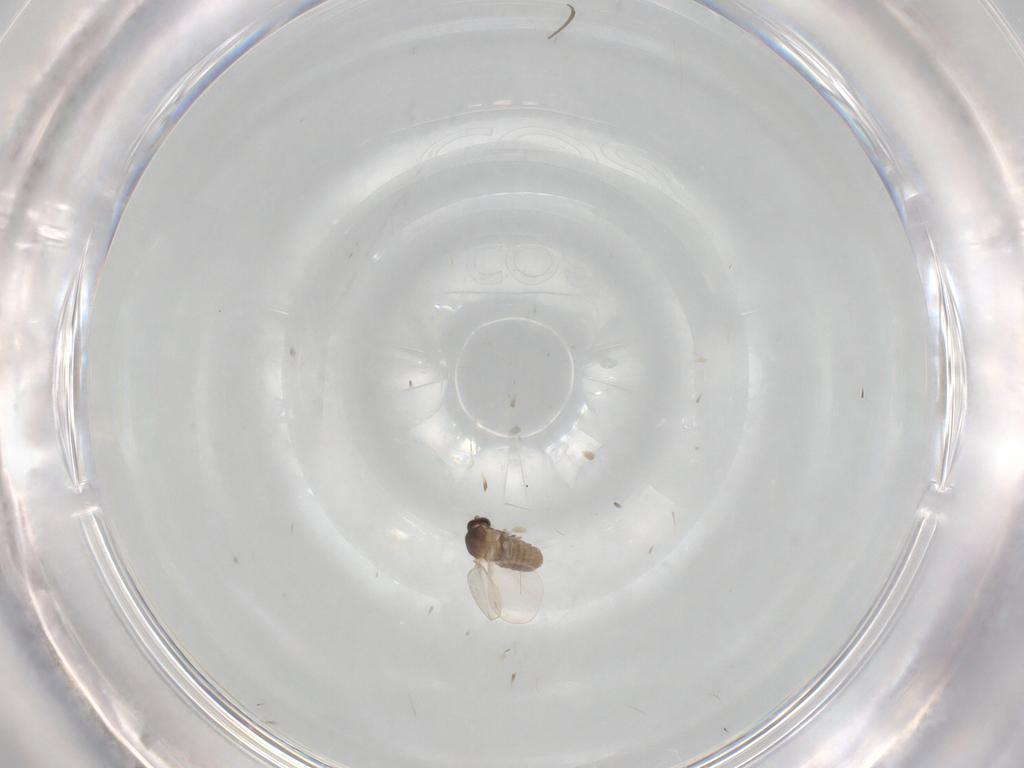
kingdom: Animalia
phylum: Arthropoda
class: Insecta
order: Diptera
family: Cecidomyiidae
